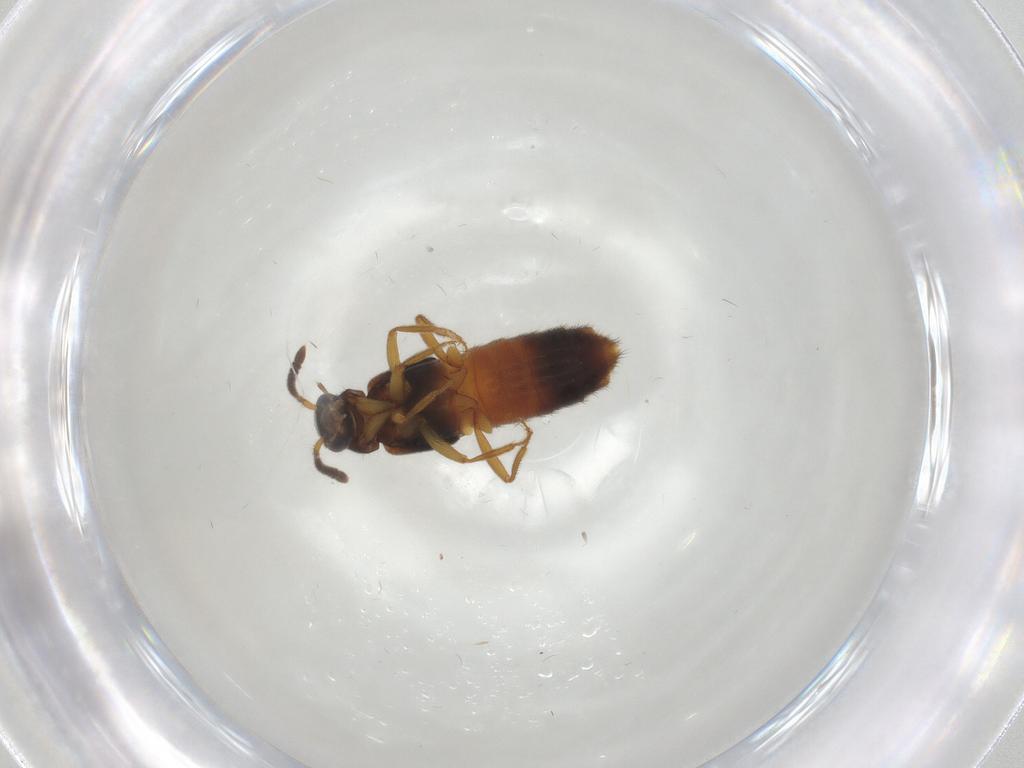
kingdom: Animalia
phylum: Arthropoda
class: Insecta
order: Coleoptera
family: Staphylinidae
